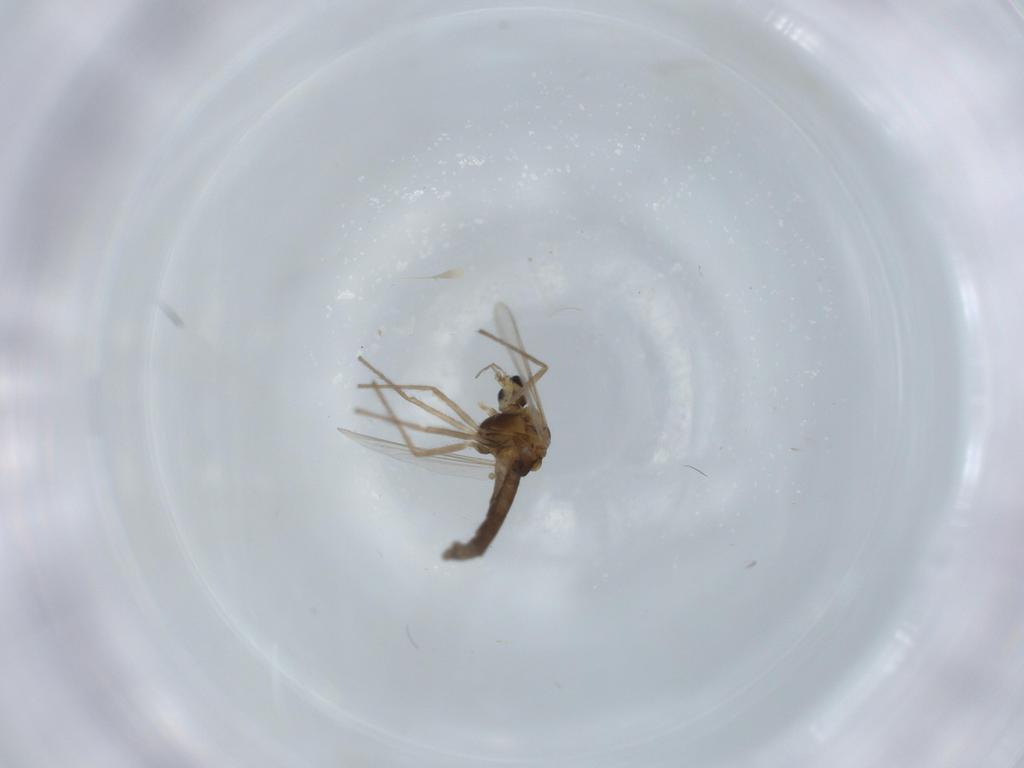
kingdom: Animalia
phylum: Arthropoda
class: Insecta
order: Diptera
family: Chironomidae
